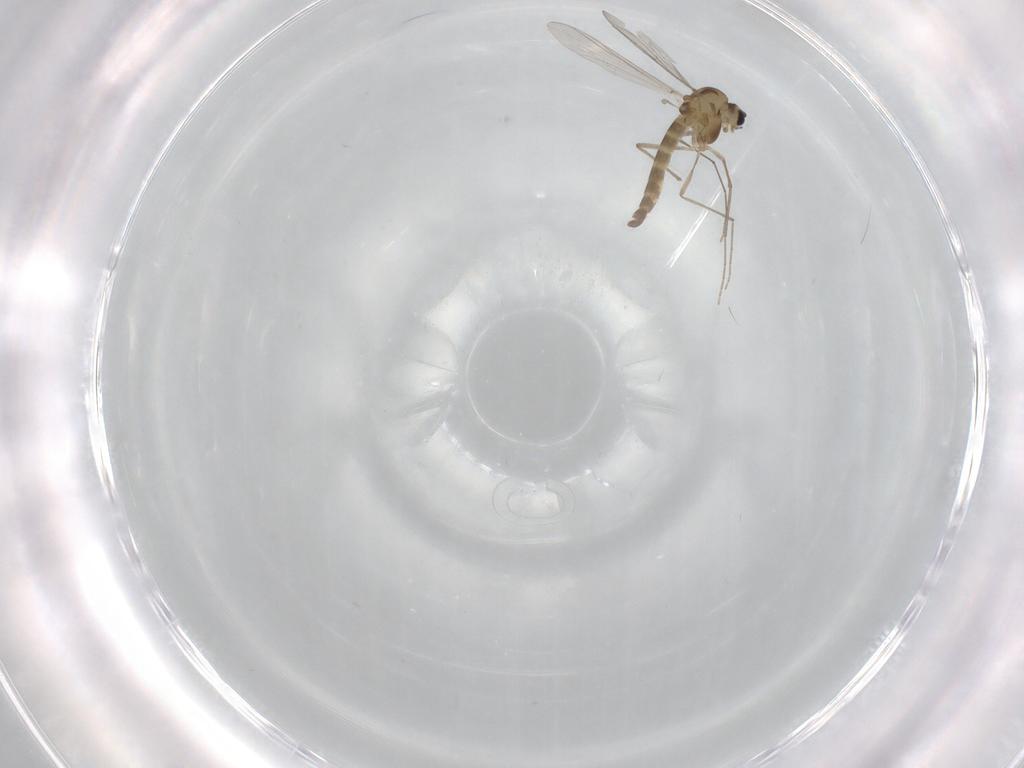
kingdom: Animalia
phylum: Arthropoda
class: Insecta
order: Diptera
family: Chironomidae
